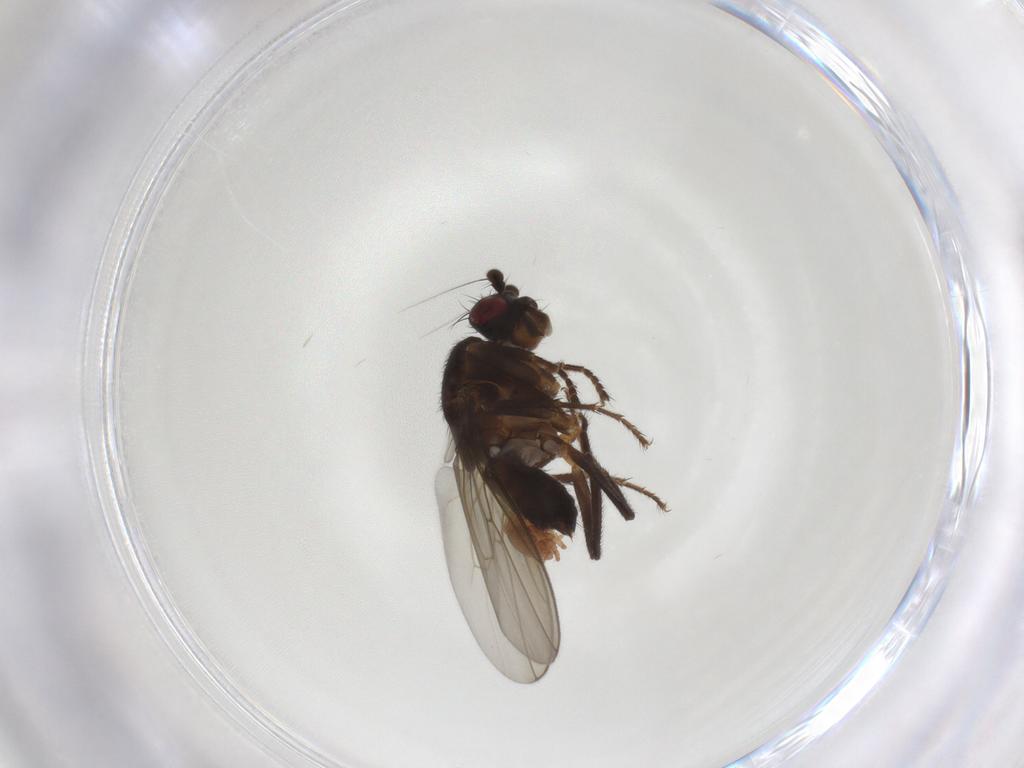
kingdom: Animalia
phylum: Arthropoda
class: Insecta
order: Diptera
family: Sphaeroceridae
